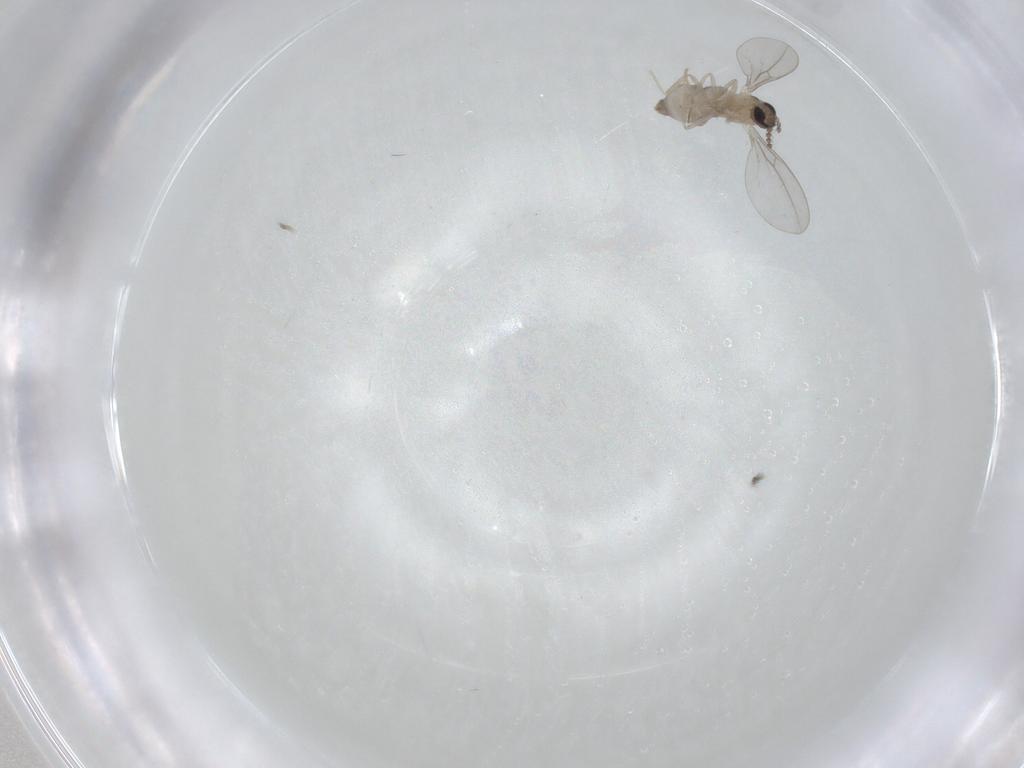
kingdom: Animalia
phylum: Arthropoda
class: Insecta
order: Diptera
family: Cecidomyiidae
